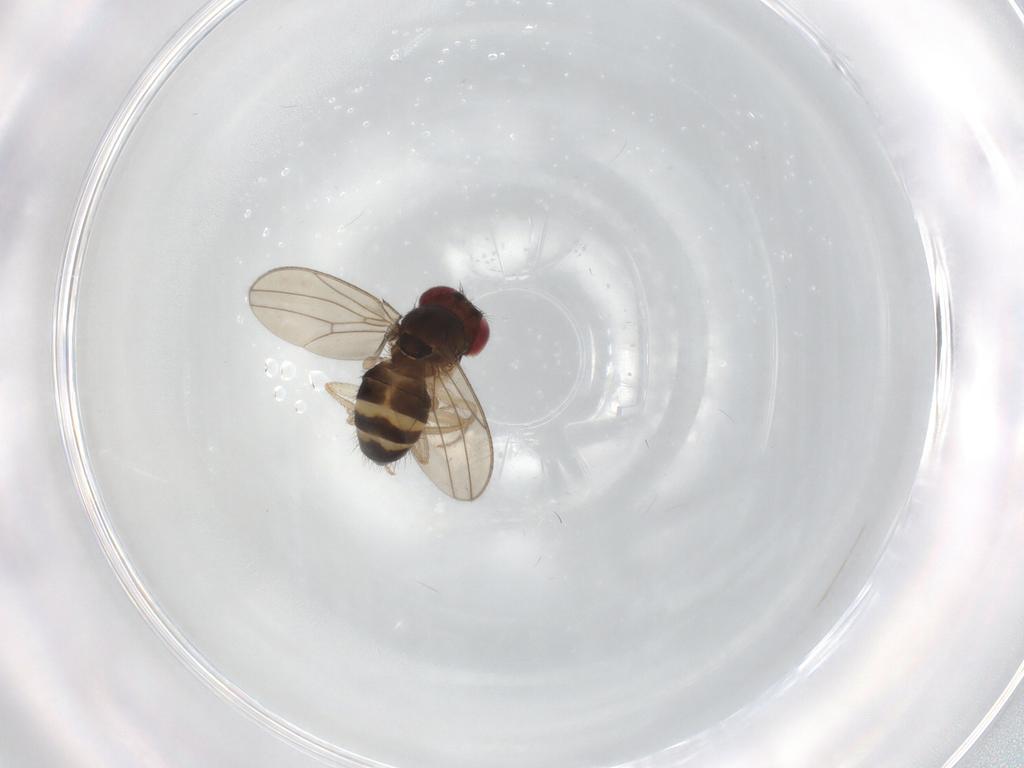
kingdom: Animalia
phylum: Arthropoda
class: Insecta
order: Diptera
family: Drosophilidae
